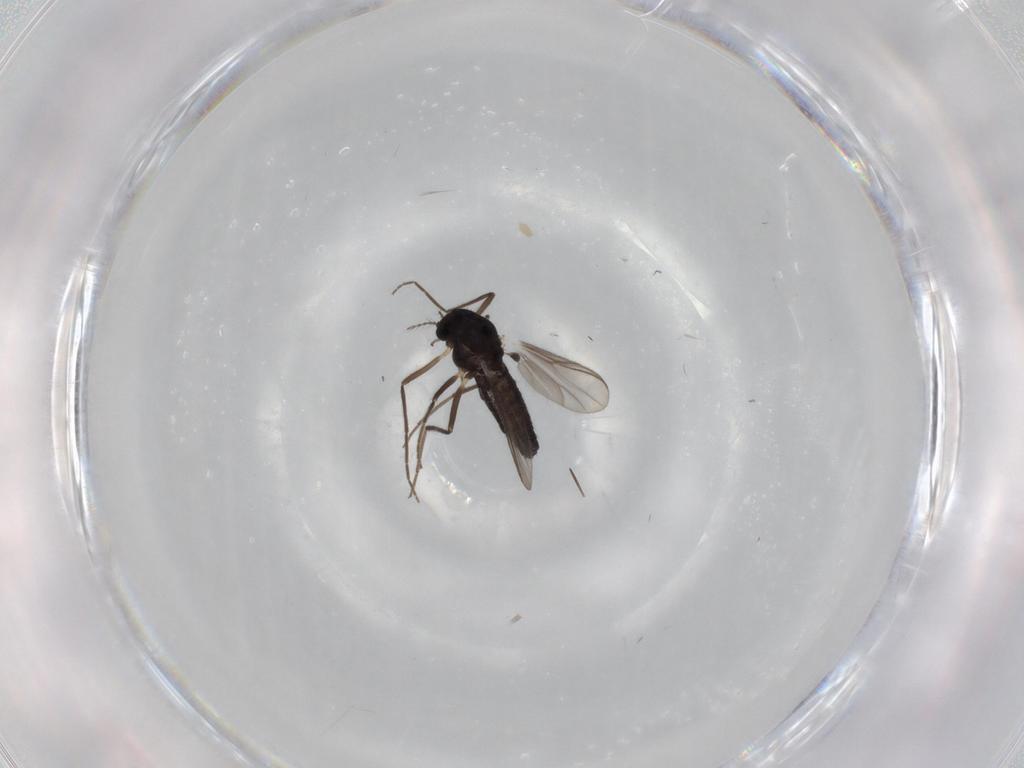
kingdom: Animalia
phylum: Arthropoda
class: Insecta
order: Diptera
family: Chironomidae
